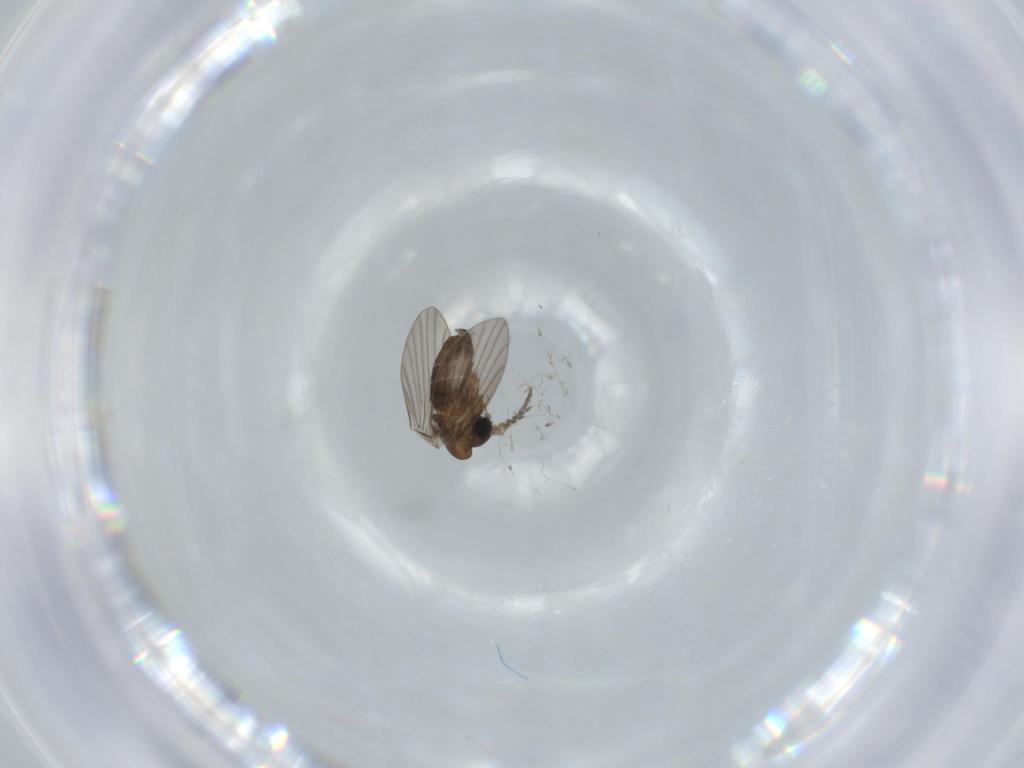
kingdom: Animalia
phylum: Arthropoda
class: Insecta
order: Diptera
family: Psychodidae
